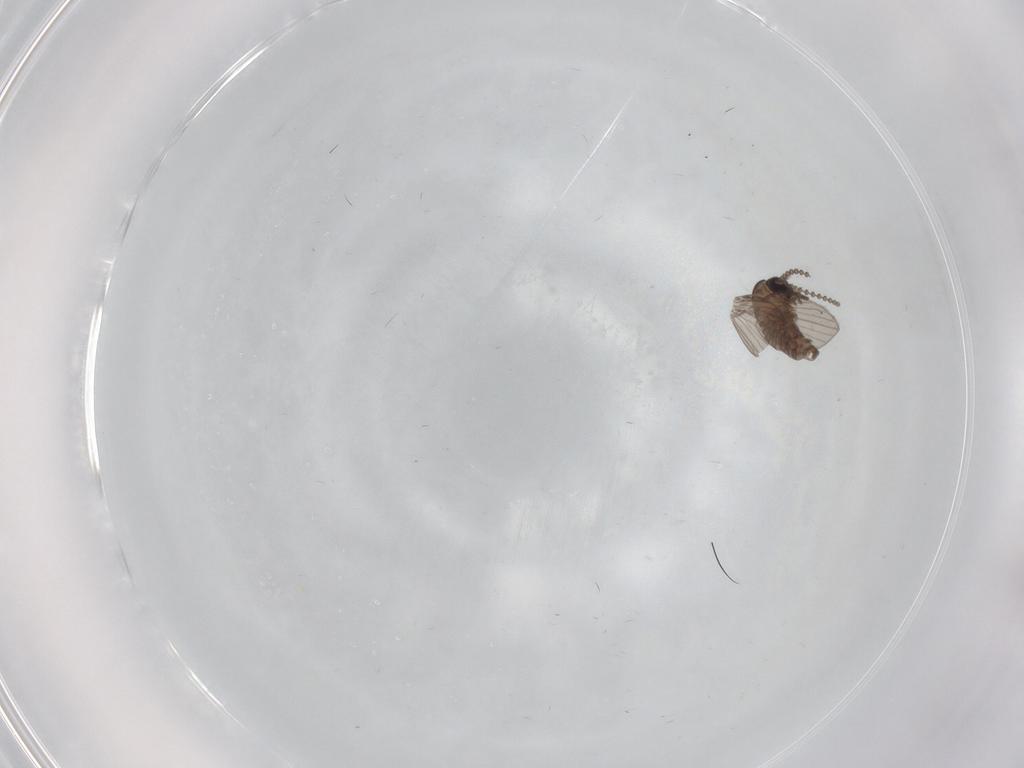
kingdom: Animalia
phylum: Arthropoda
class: Insecta
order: Diptera
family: Psychodidae
